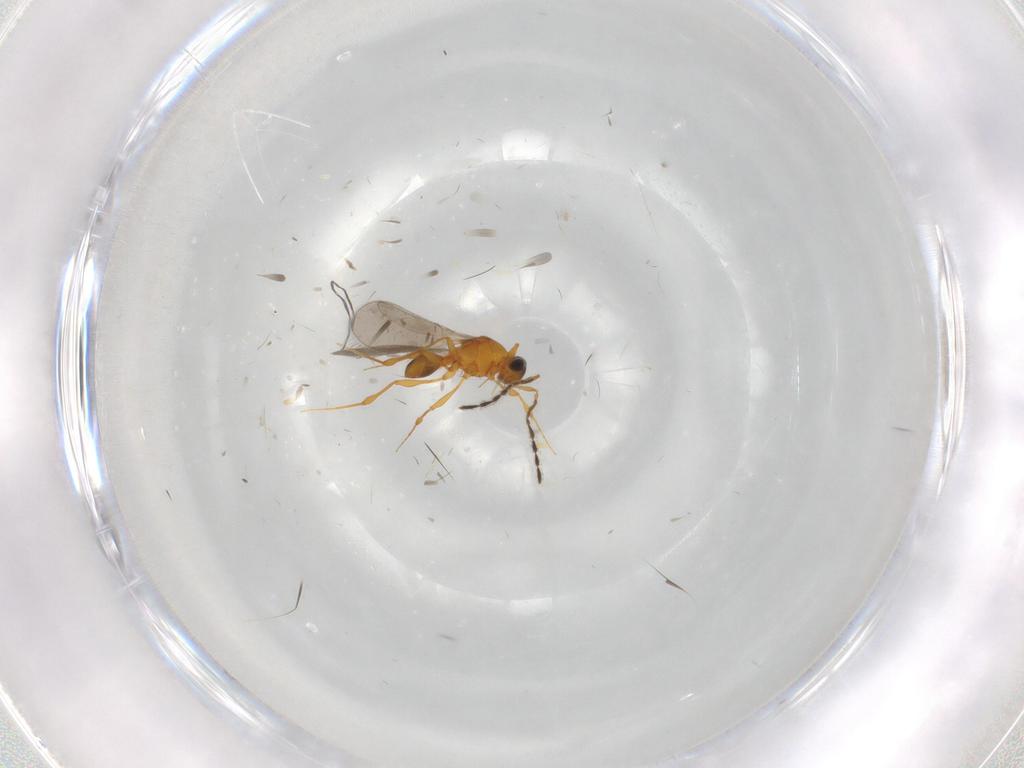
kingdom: Animalia
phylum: Arthropoda
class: Insecta
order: Hymenoptera
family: Platygastridae
